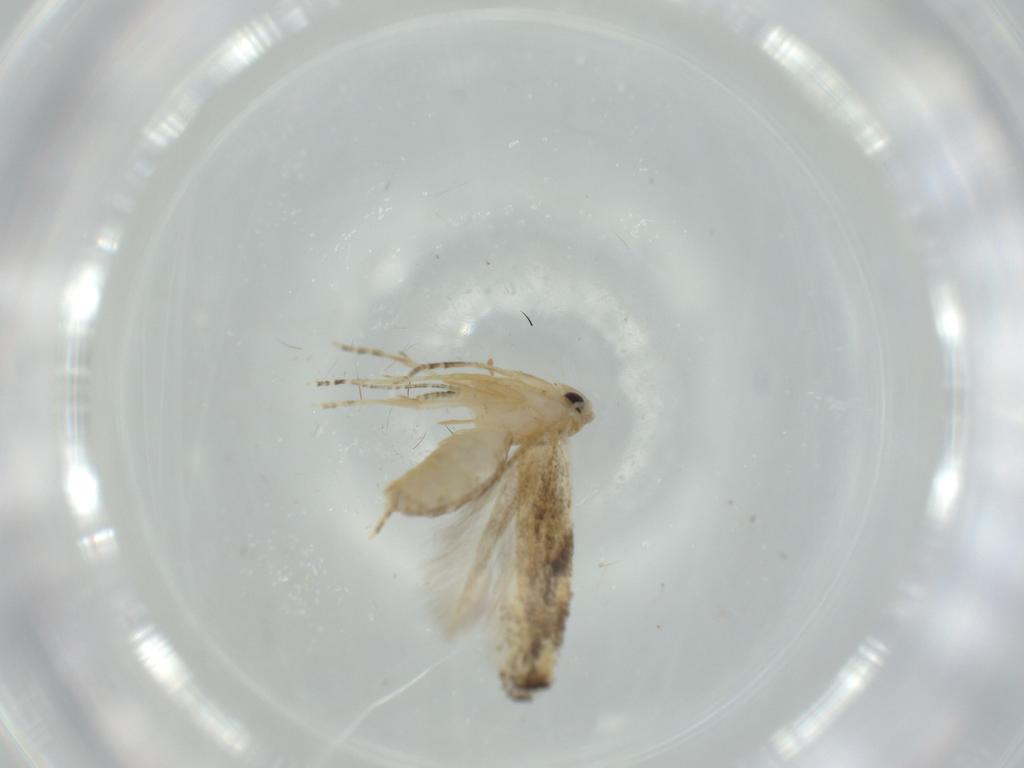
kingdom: Animalia
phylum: Arthropoda
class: Insecta
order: Lepidoptera
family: Bucculatricidae
